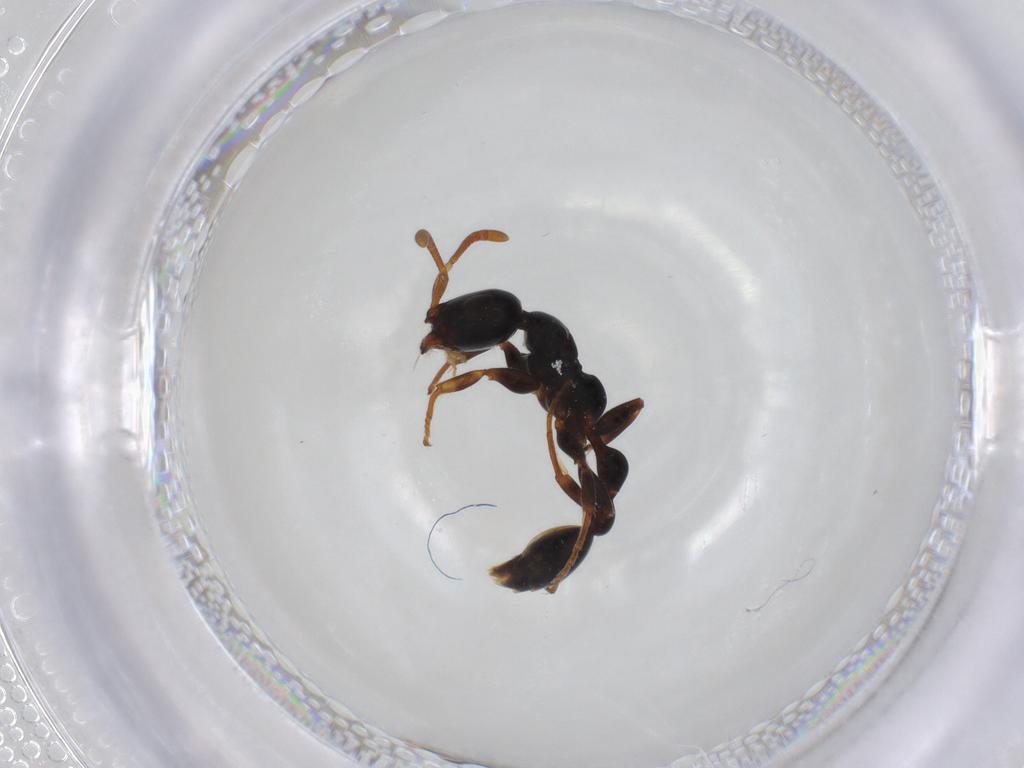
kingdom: Animalia
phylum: Arthropoda
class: Insecta
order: Hymenoptera
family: Formicidae
